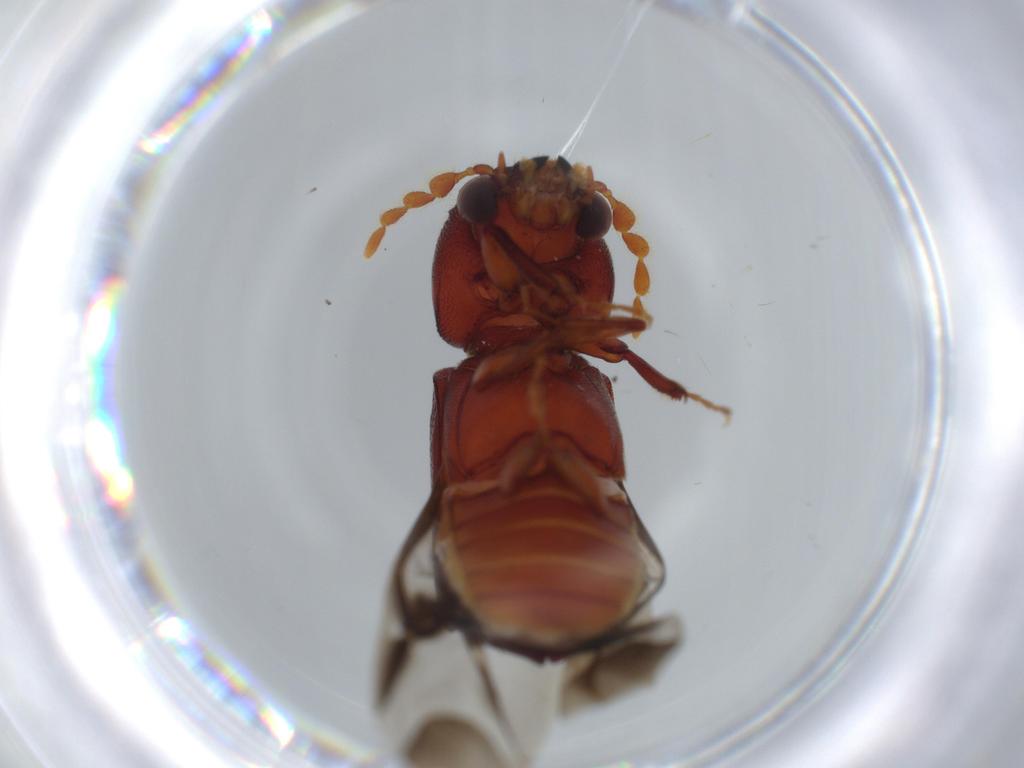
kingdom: Animalia
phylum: Arthropoda
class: Insecta
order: Coleoptera
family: Bostrichidae
